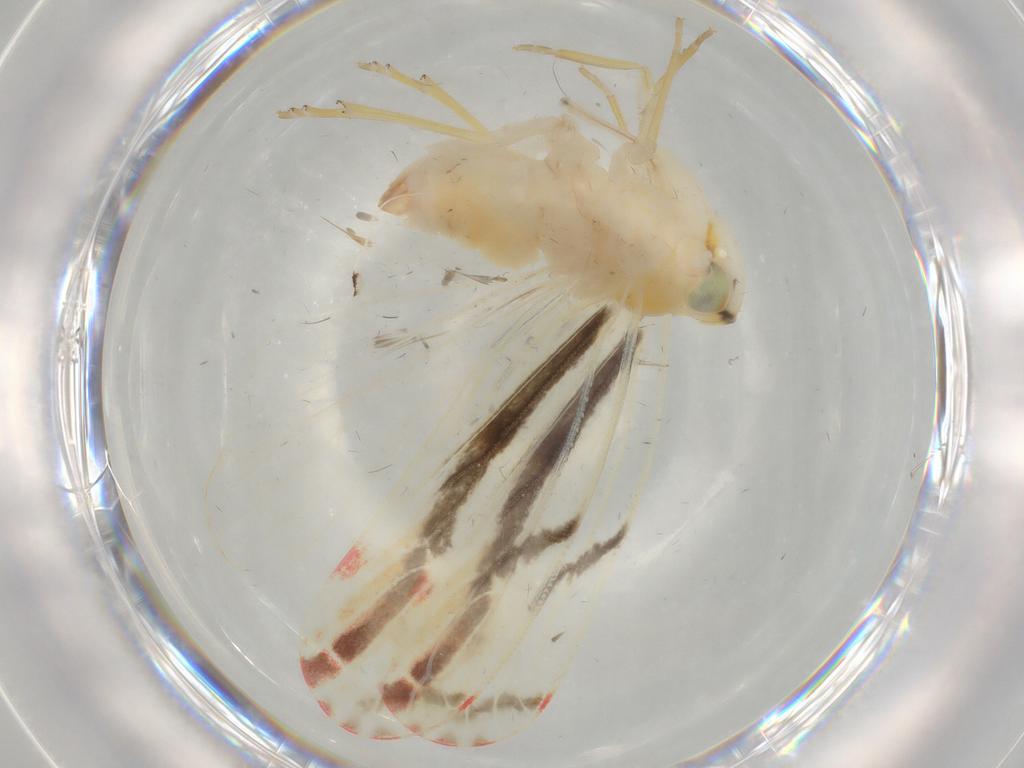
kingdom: Animalia
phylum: Arthropoda
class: Insecta
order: Hemiptera
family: Derbidae
